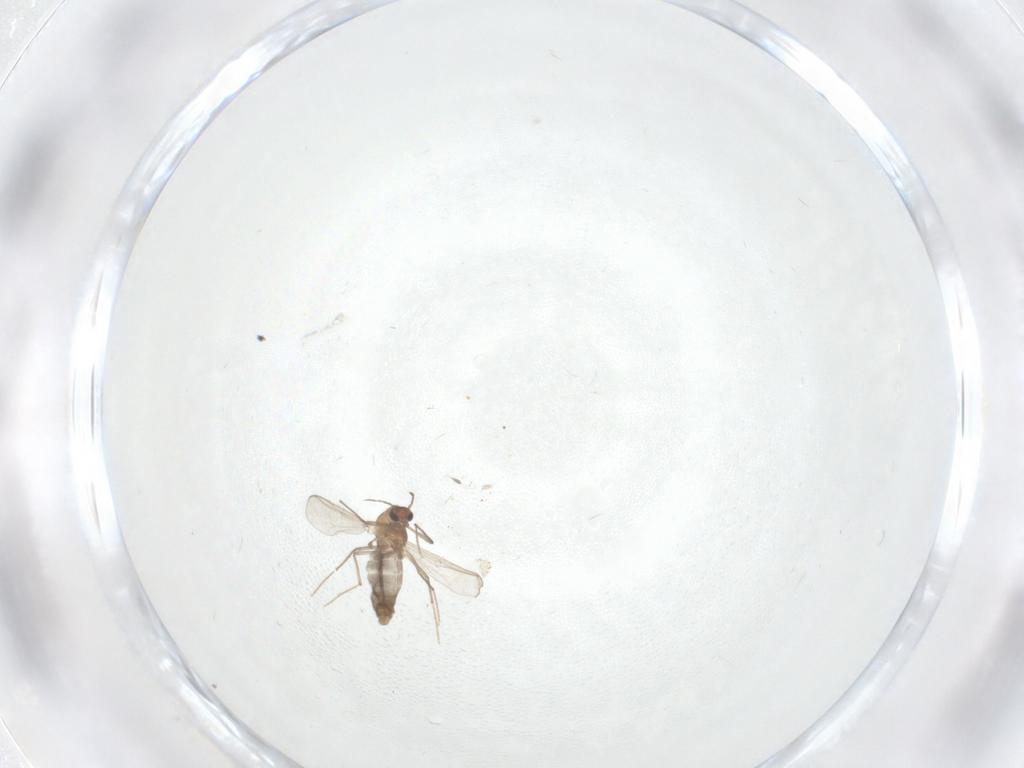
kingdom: Animalia
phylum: Arthropoda
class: Insecta
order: Diptera
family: Chironomidae
